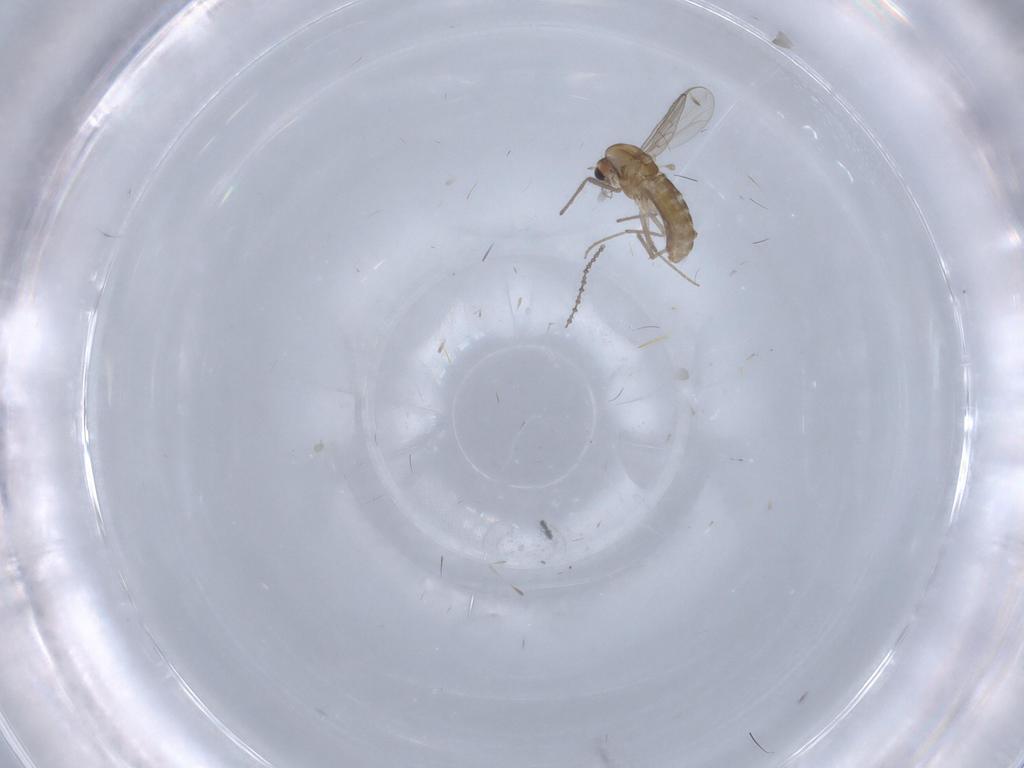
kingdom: Animalia
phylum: Arthropoda
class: Insecta
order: Diptera
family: Chironomidae
